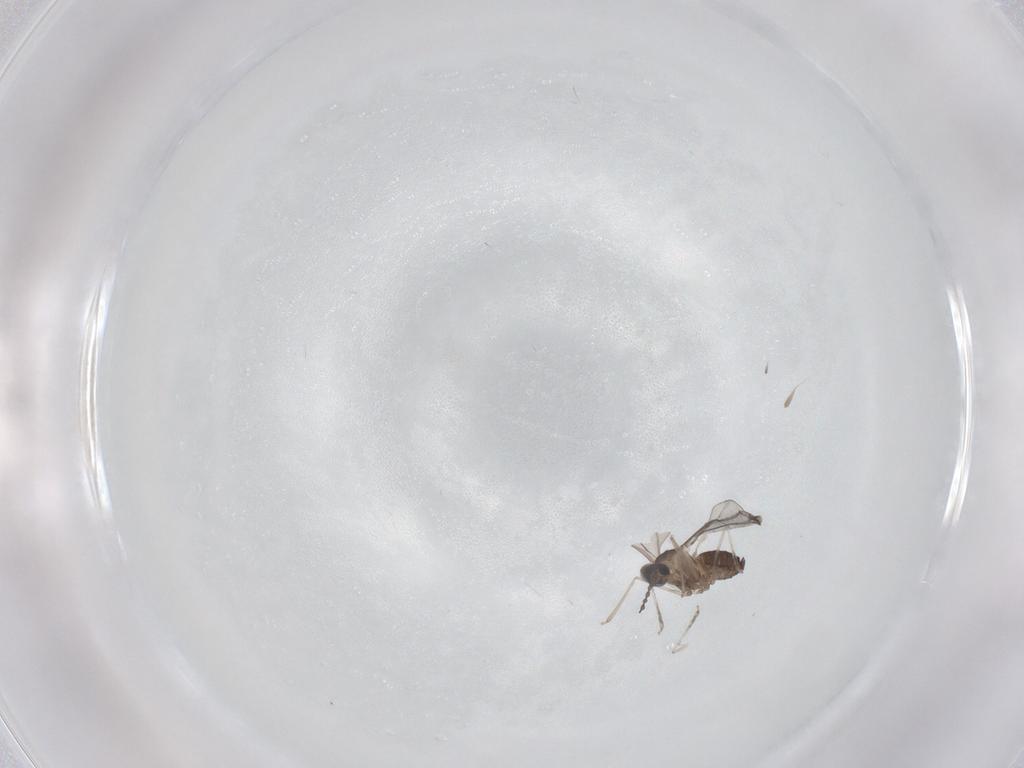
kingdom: Animalia
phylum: Arthropoda
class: Insecta
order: Diptera
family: Cecidomyiidae
